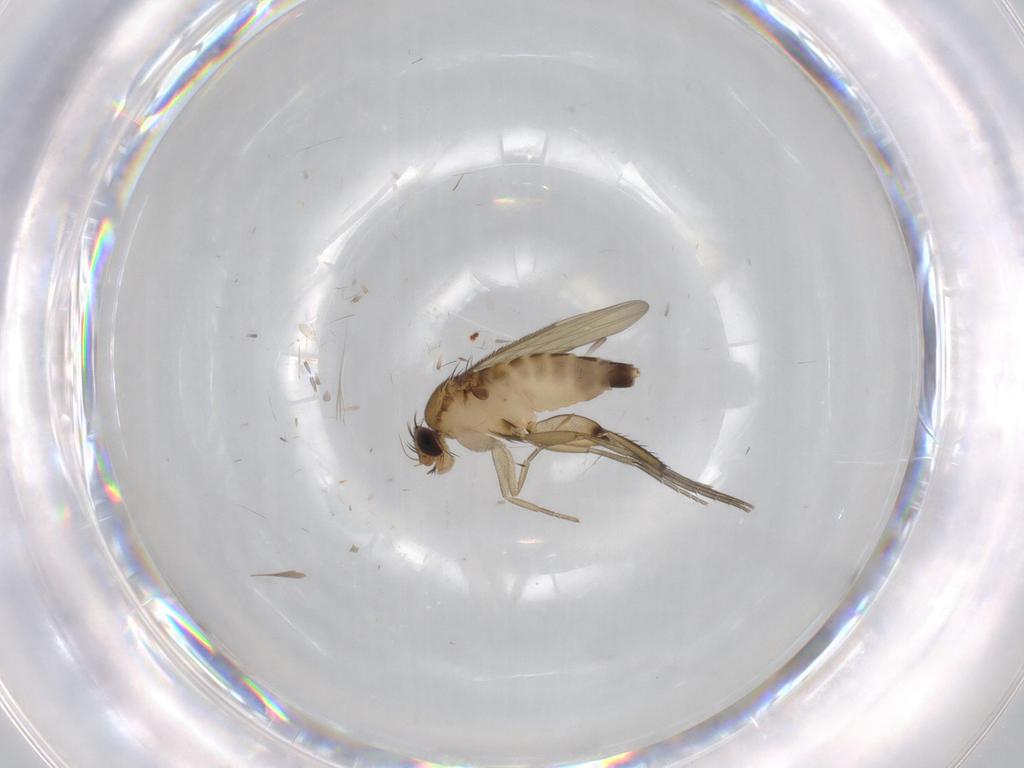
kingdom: Animalia
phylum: Arthropoda
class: Insecta
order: Diptera
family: Phoridae
